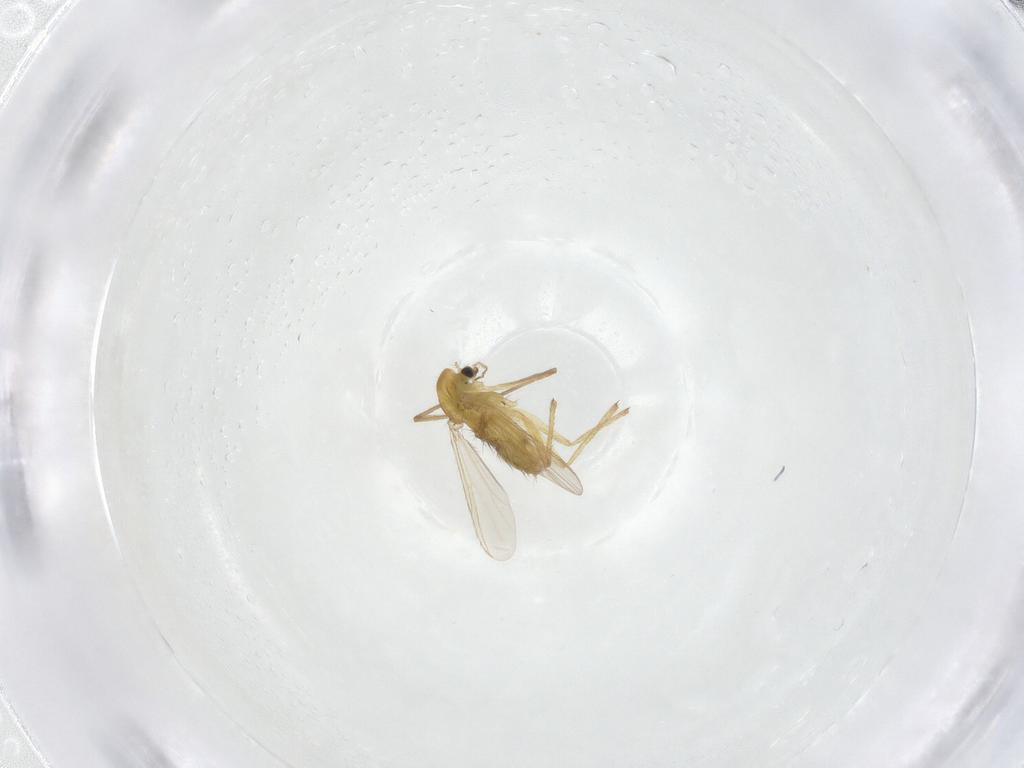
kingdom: Animalia
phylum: Arthropoda
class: Insecta
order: Diptera
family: Chironomidae
